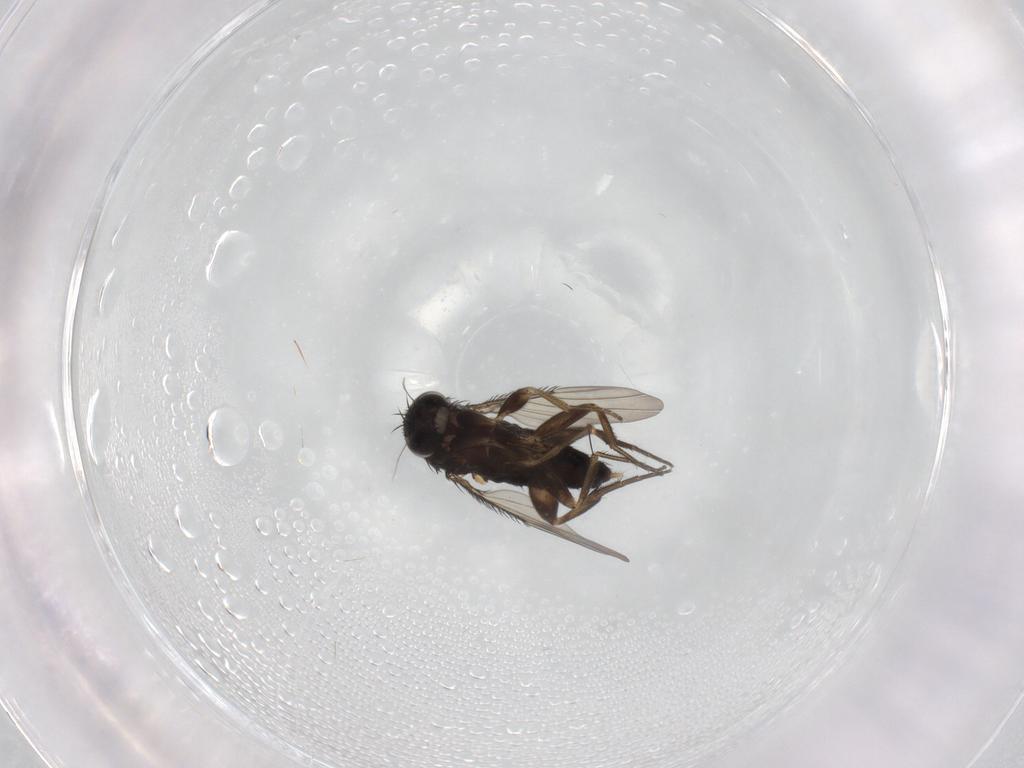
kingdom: Animalia
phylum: Arthropoda
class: Insecta
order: Diptera
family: Phoridae
